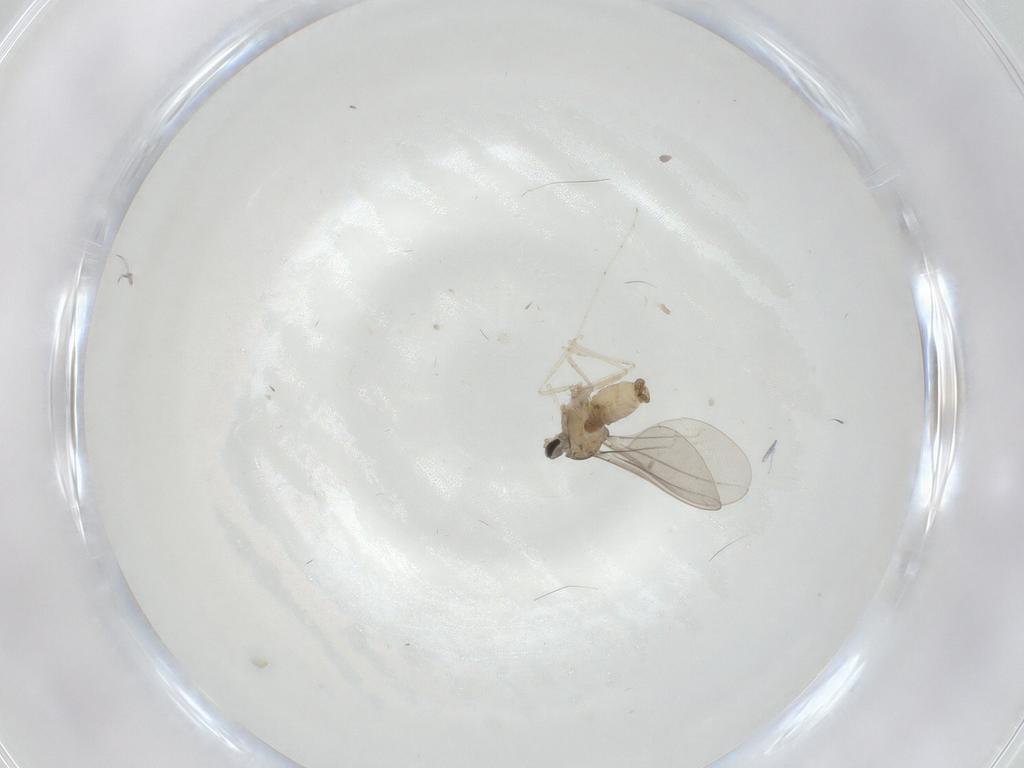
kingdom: Animalia
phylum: Arthropoda
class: Insecta
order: Diptera
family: Cecidomyiidae
